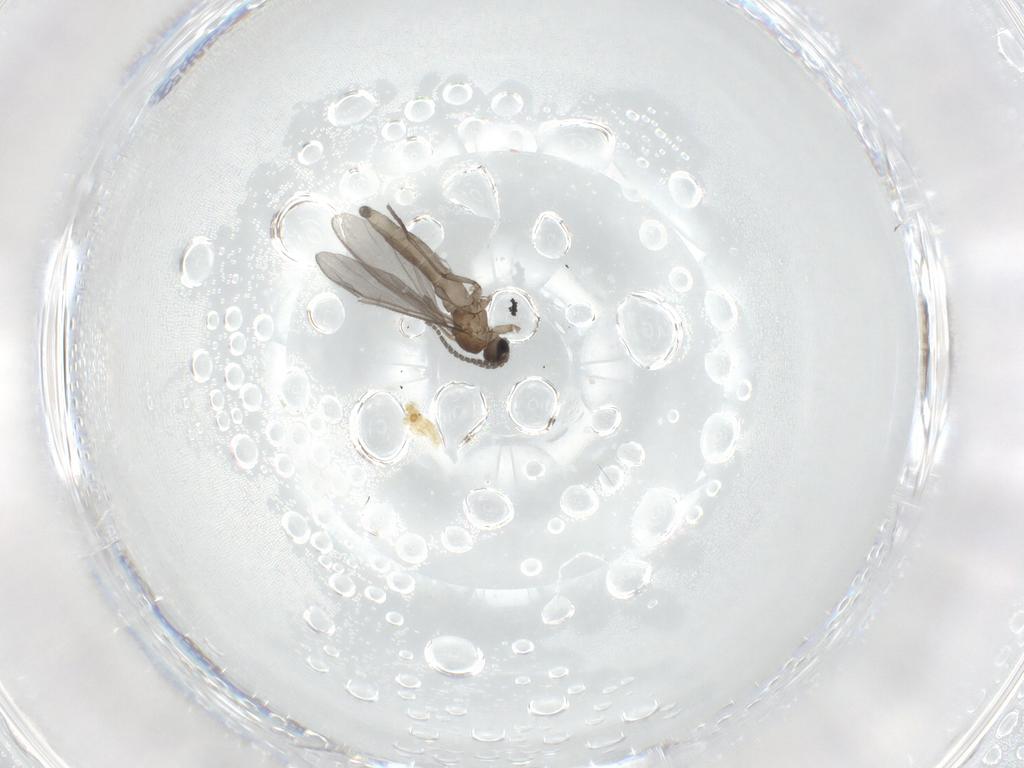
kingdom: Animalia
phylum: Arthropoda
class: Insecta
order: Diptera
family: Sciaridae
